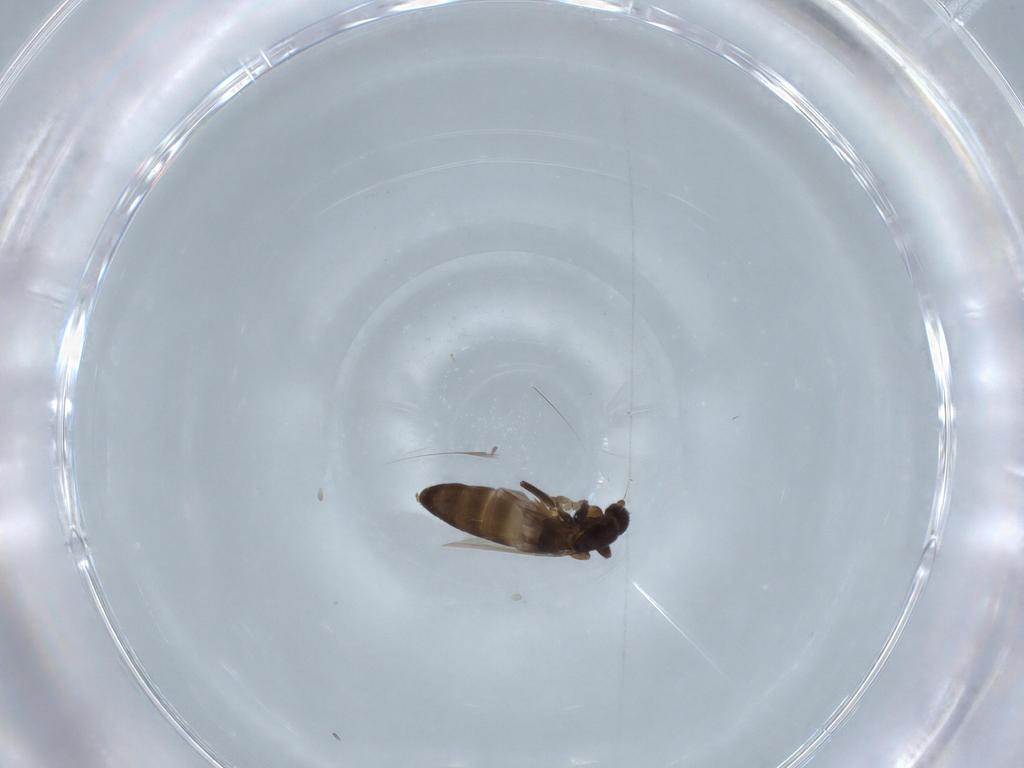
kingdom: Animalia
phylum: Arthropoda
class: Insecta
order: Diptera
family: Phoridae
